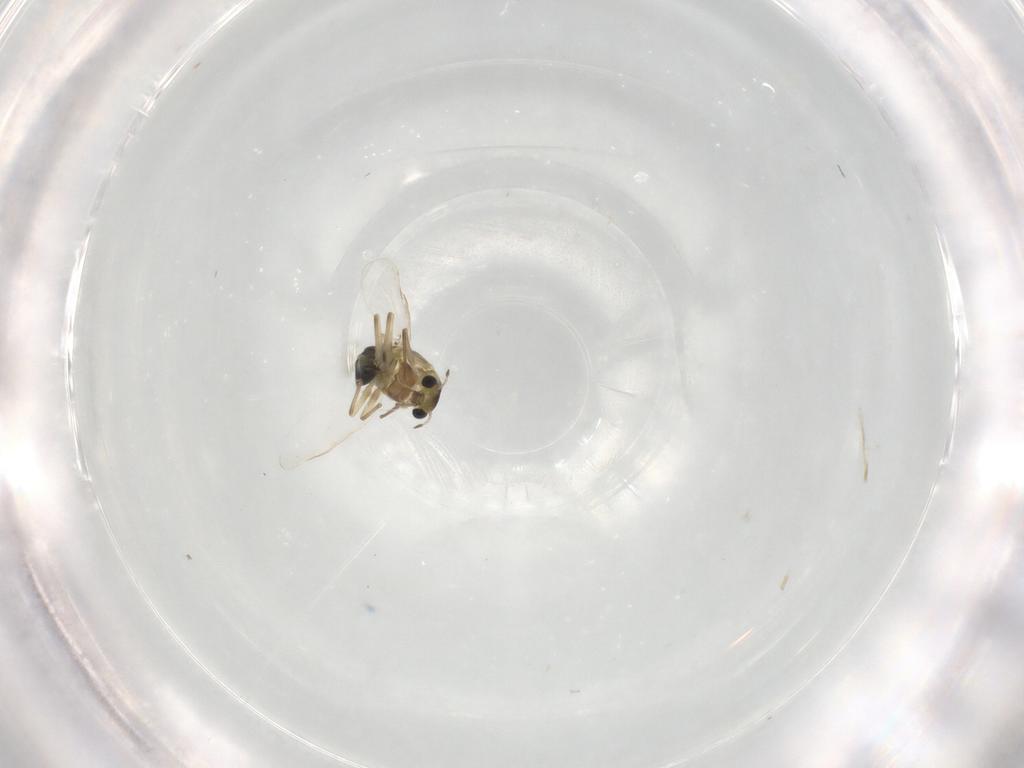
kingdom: Animalia
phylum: Arthropoda
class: Insecta
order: Diptera
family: Chironomidae
